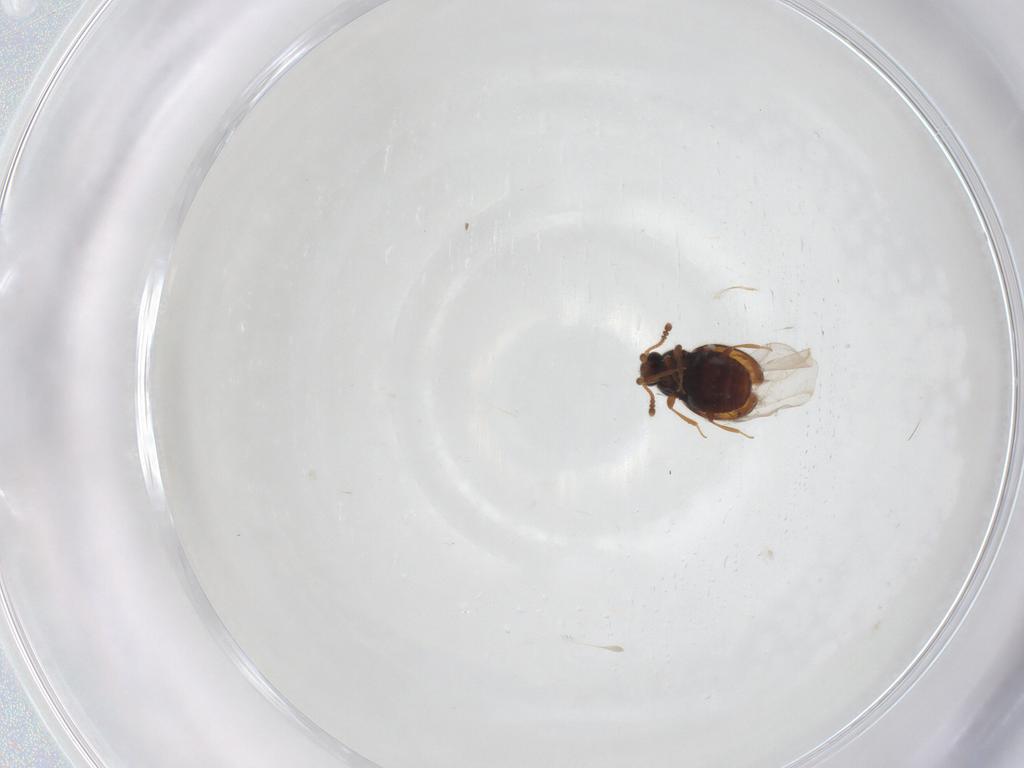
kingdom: Animalia
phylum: Arthropoda
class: Insecta
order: Coleoptera
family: Staphylinidae
